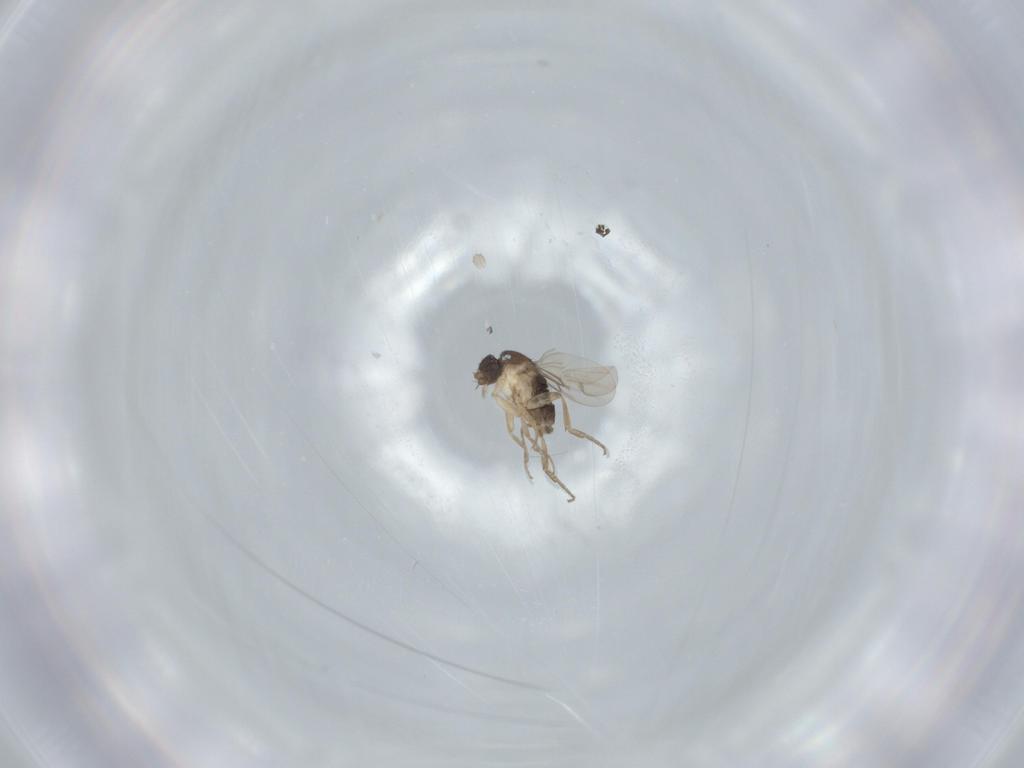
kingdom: Animalia
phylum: Arthropoda
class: Insecta
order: Diptera
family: Phoridae
